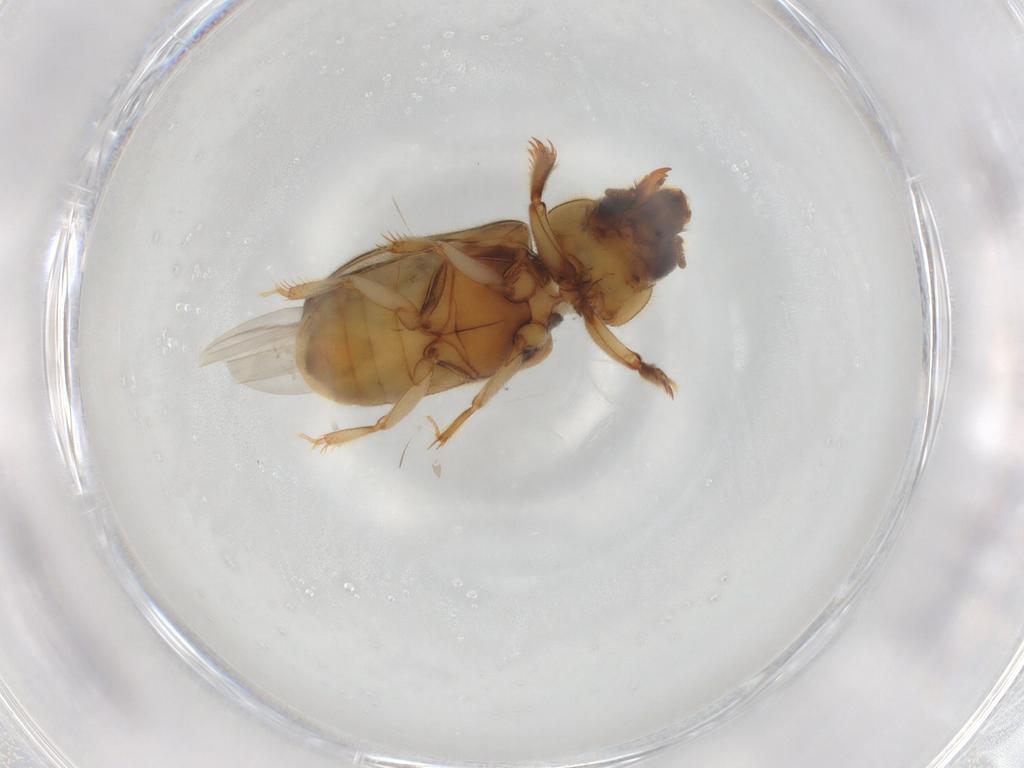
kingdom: Animalia
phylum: Arthropoda
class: Insecta
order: Coleoptera
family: Heteroceridae
